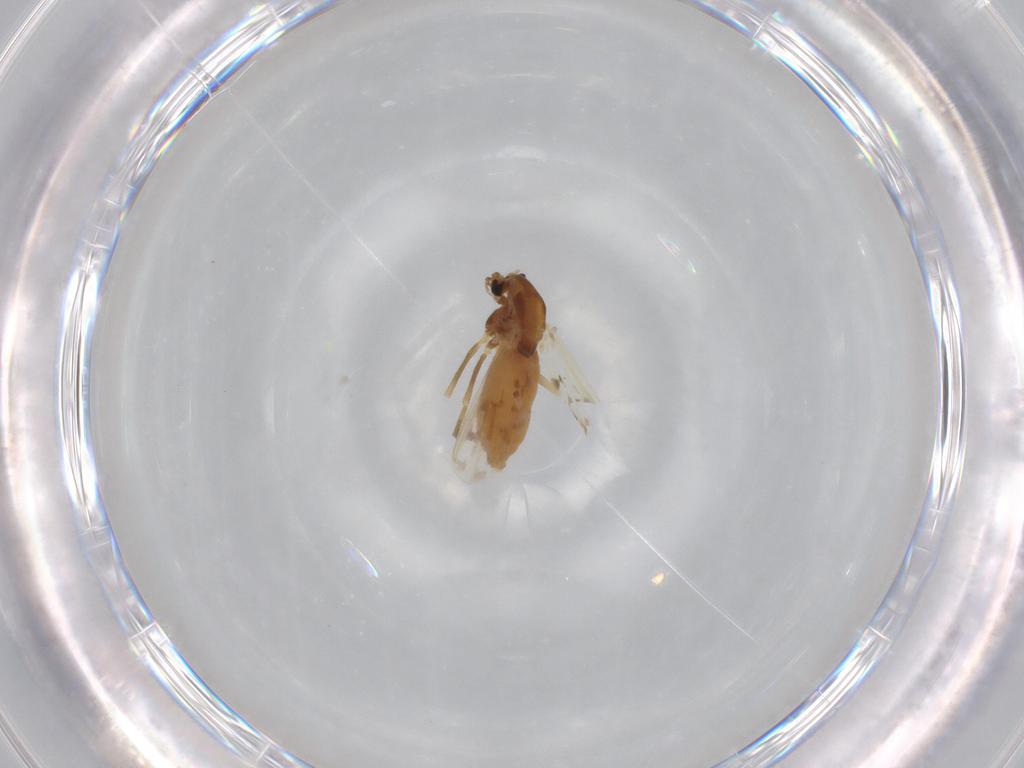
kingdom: Animalia
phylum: Arthropoda
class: Insecta
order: Diptera
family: Chironomidae
